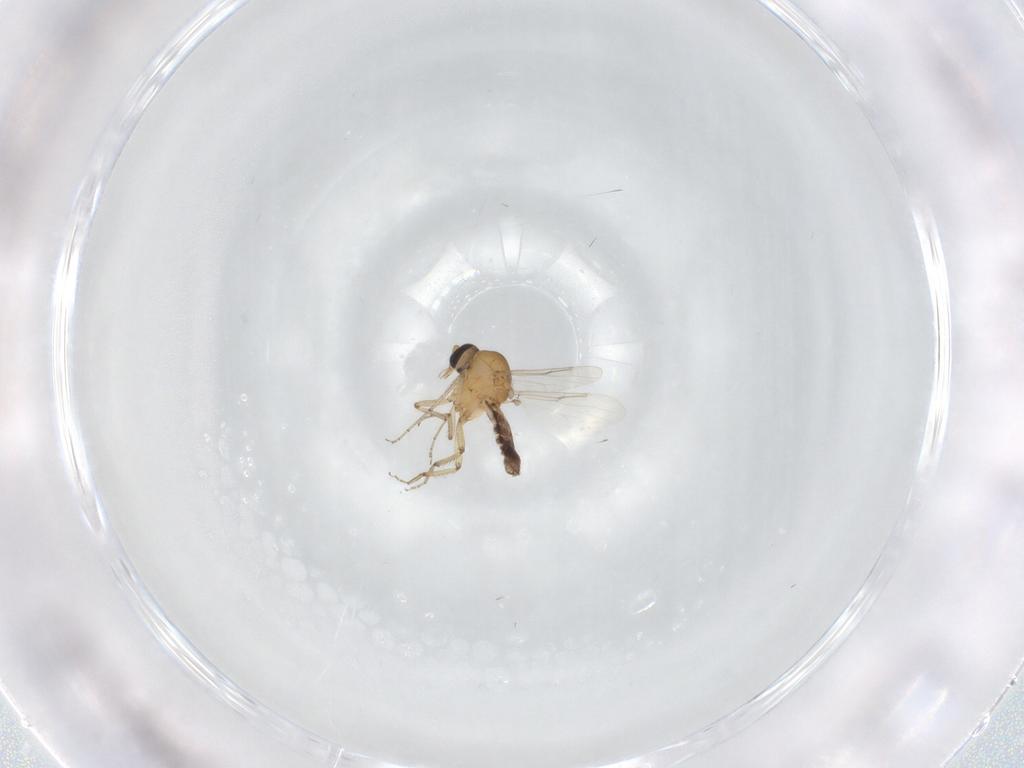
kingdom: Animalia
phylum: Arthropoda
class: Insecta
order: Diptera
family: Ceratopogonidae
